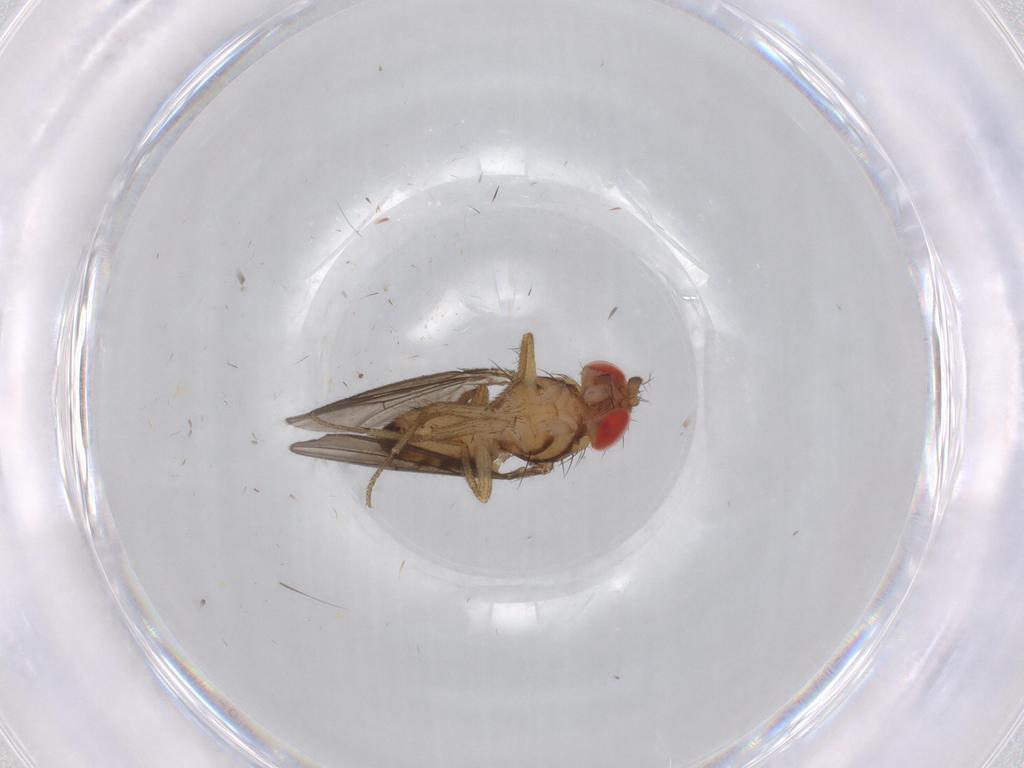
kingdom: Animalia
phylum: Arthropoda
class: Insecta
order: Diptera
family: Drosophilidae
